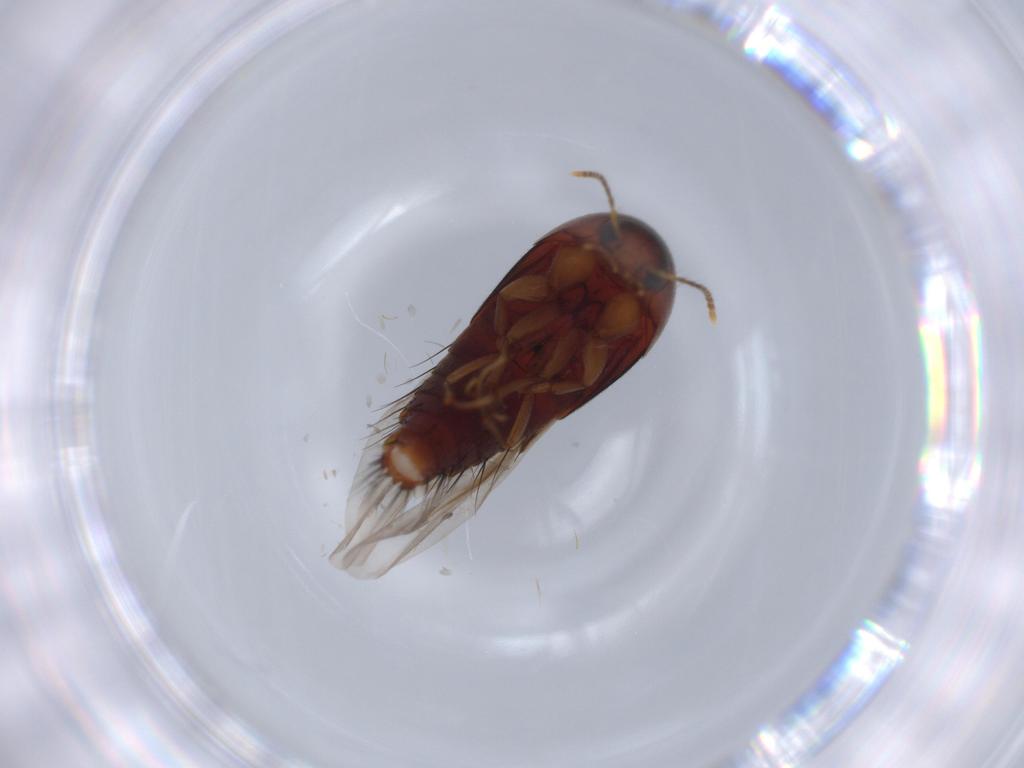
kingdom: Animalia
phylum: Arthropoda
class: Insecta
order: Coleoptera
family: Staphylinidae
